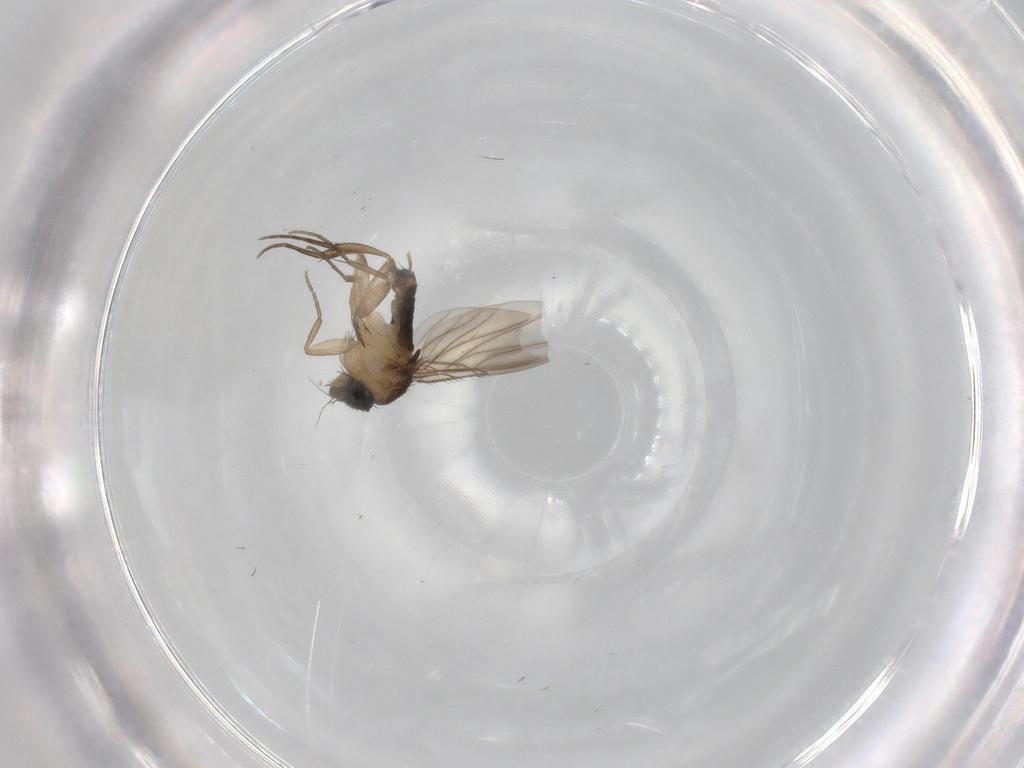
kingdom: Animalia
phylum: Arthropoda
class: Insecta
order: Diptera
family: Phoridae
